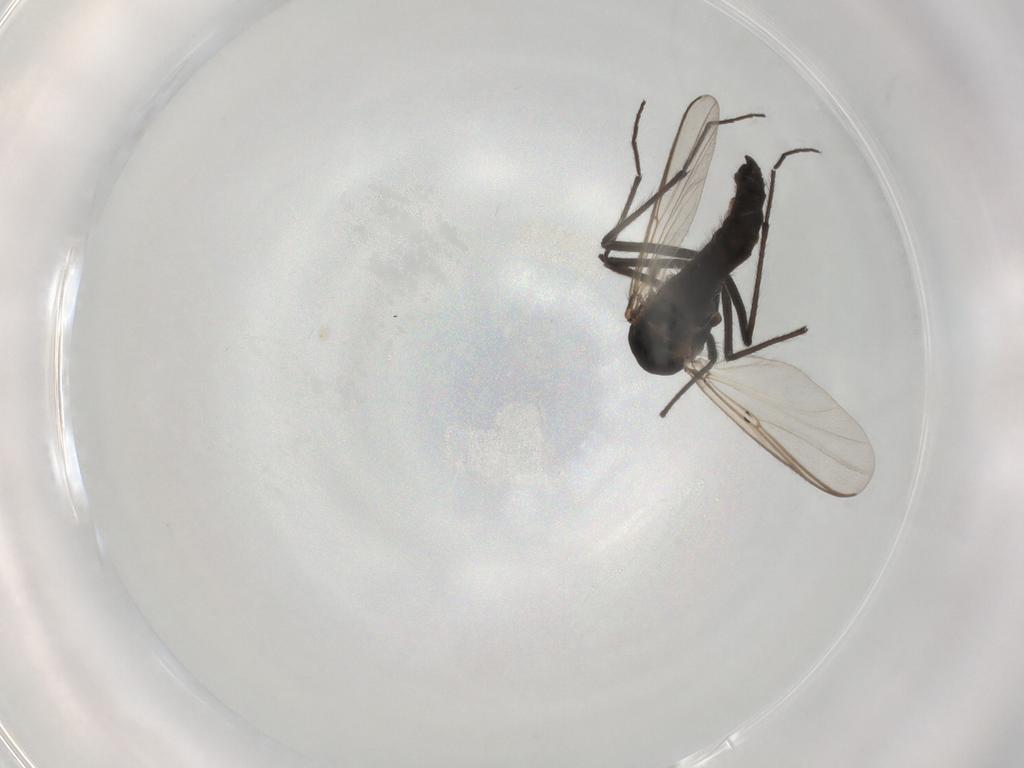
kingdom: Animalia
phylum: Arthropoda
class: Insecta
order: Diptera
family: Chironomidae
